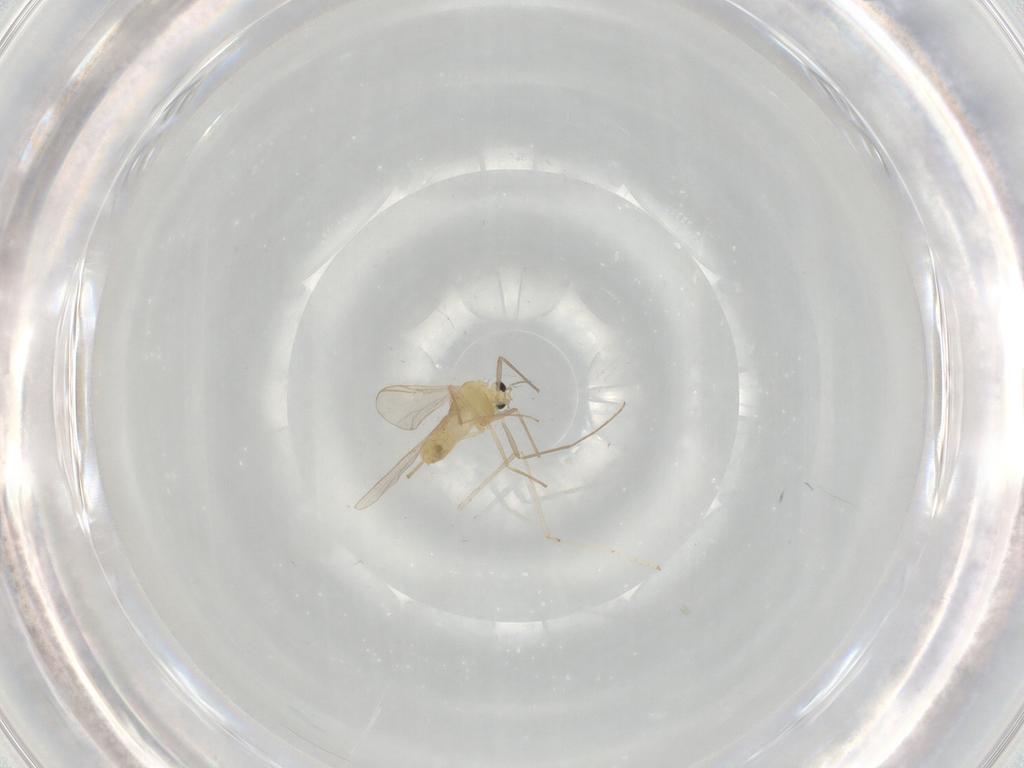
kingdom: Animalia
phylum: Arthropoda
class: Insecta
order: Diptera
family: Chironomidae
